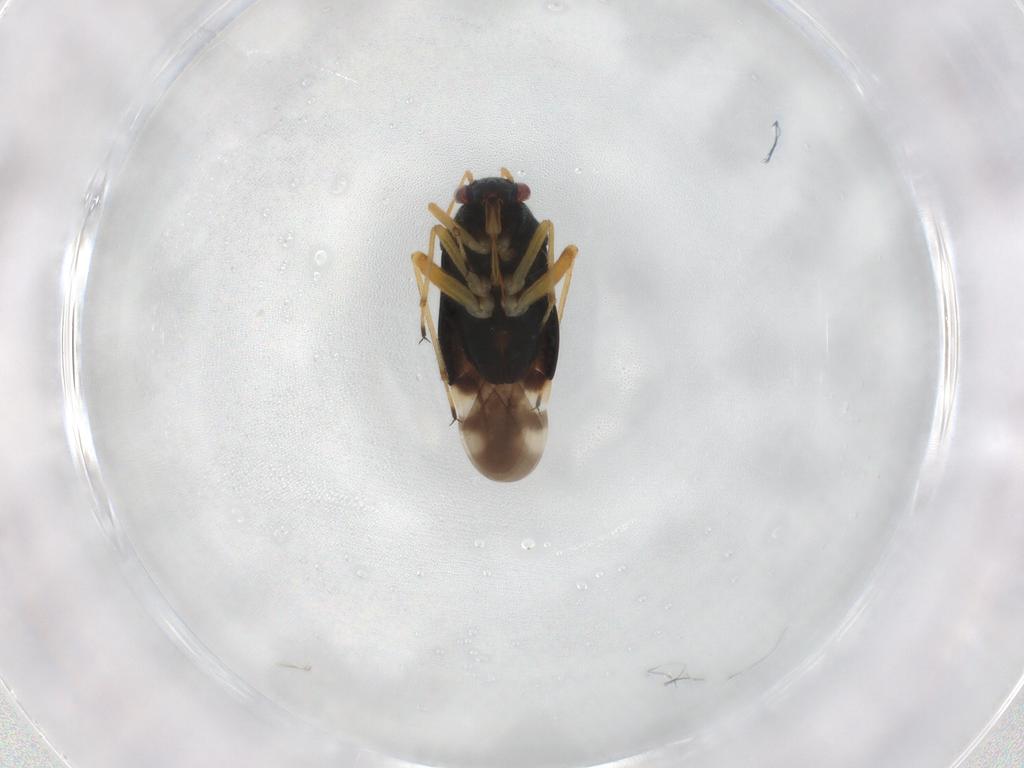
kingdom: Animalia
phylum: Arthropoda
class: Insecta
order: Hemiptera
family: Miridae
